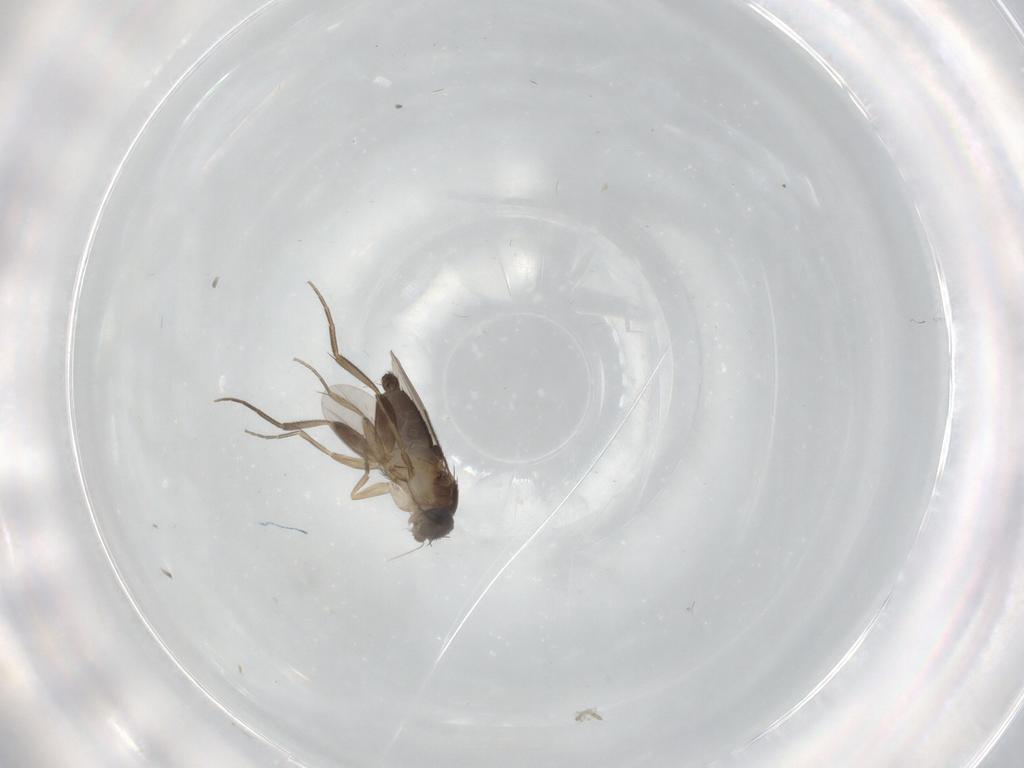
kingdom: Animalia
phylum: Arthropoda
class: Insecta
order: Diptera
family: Phoridae
